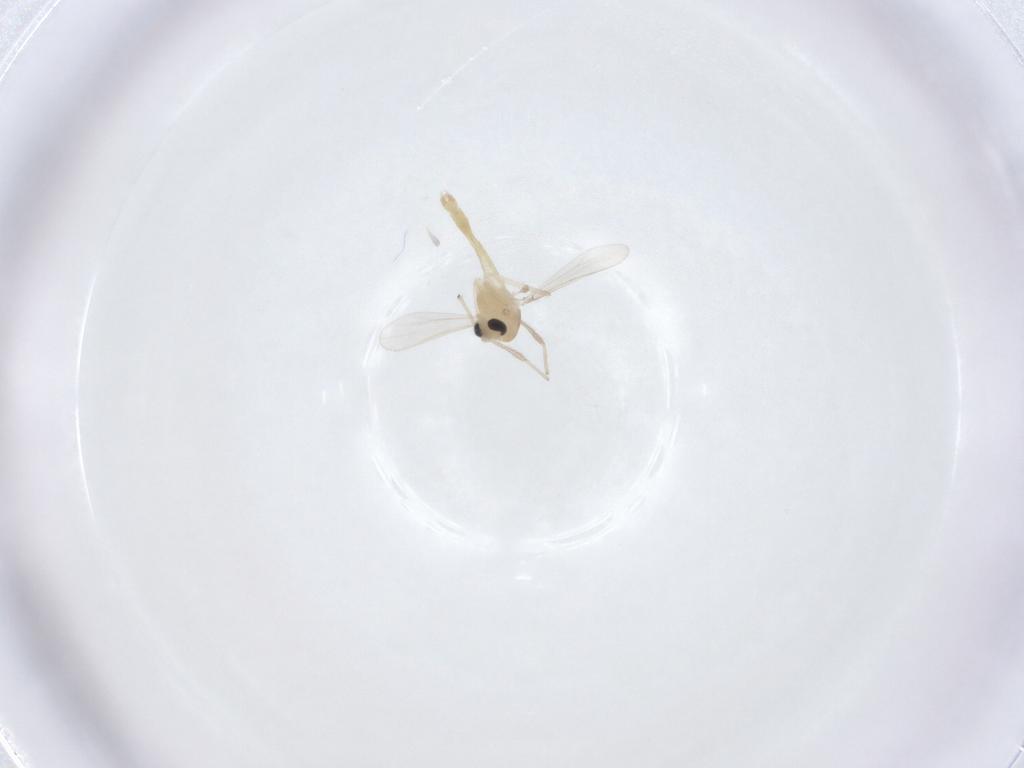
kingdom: Animalia
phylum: Arthropoda
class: Insecta
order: Diptera
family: Chironomidae
